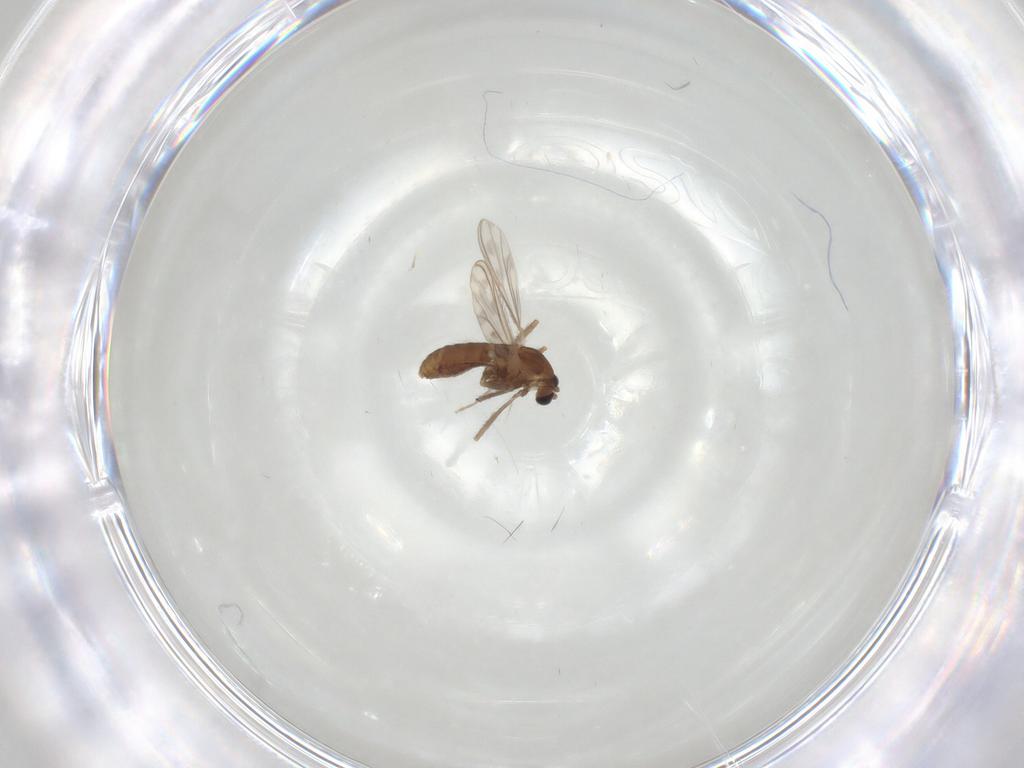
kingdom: Animalia
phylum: Arthropoda
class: Insecta
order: Diptera
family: Chironomidae
